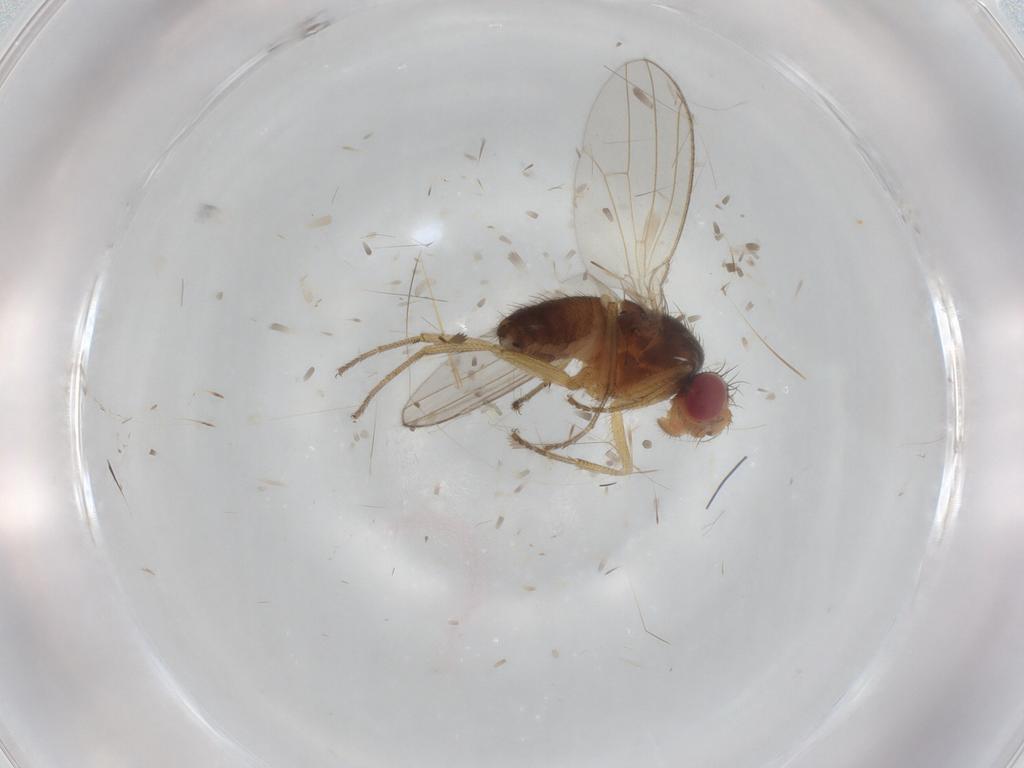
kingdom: Animalia
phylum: Arthropoda
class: Insecta
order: Diptera
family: Drosophilidae
